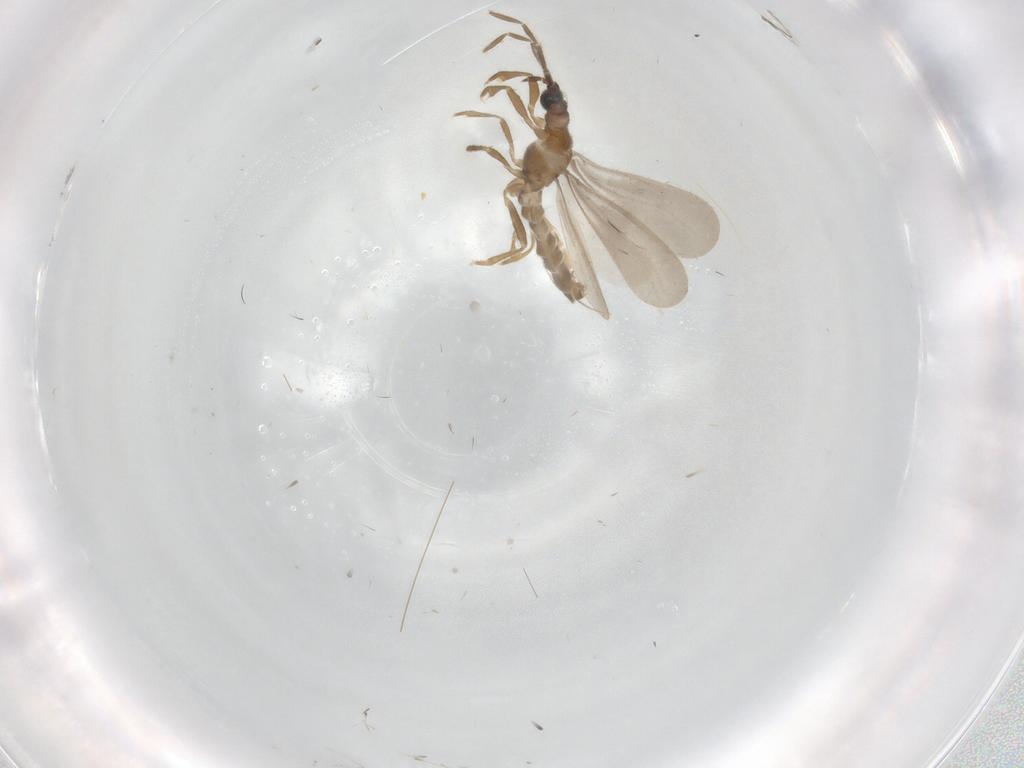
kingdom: Animalia
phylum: Arthropoda
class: Insecta
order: Hemiptera
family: Enicocephalidae
